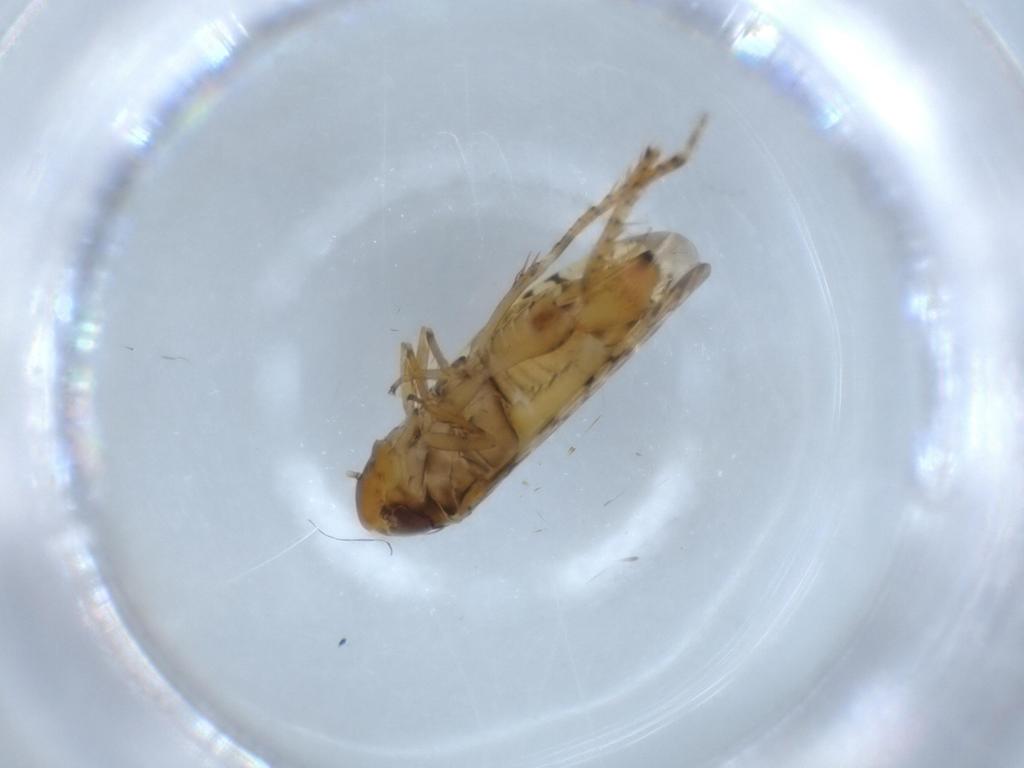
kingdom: Animalia
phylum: Arthropoda
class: Insecta
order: Hemiptera
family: Cicadellidae
